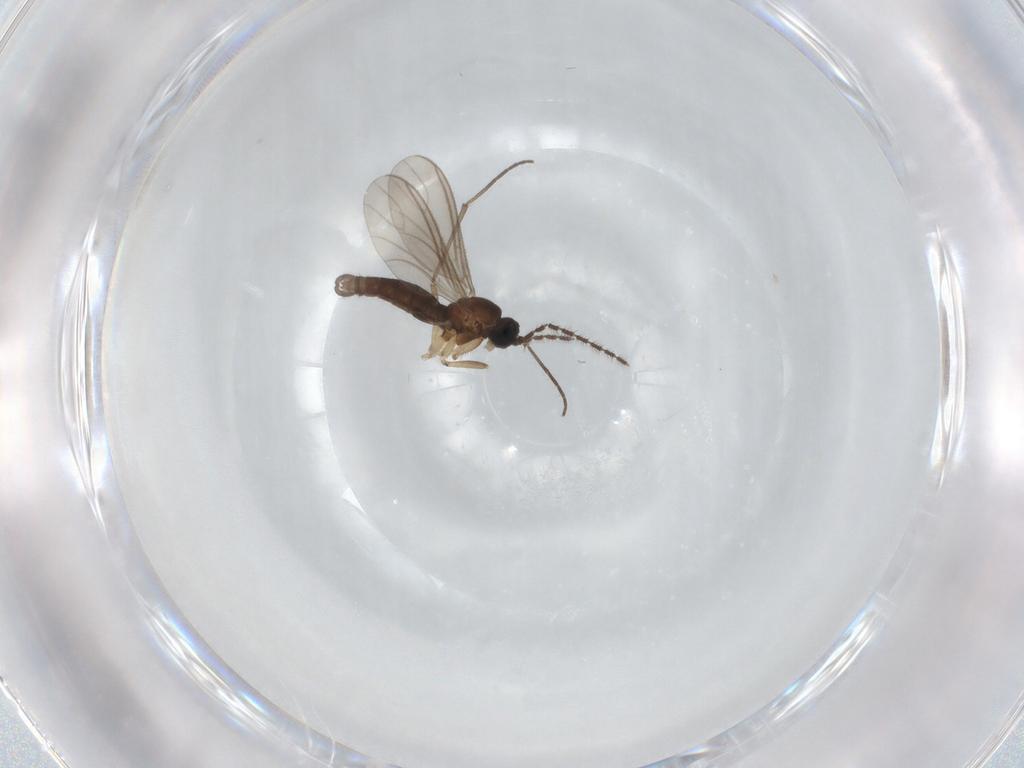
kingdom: Animalia
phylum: Arthropoda
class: Insecta
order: Diptera
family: Sciaridae
